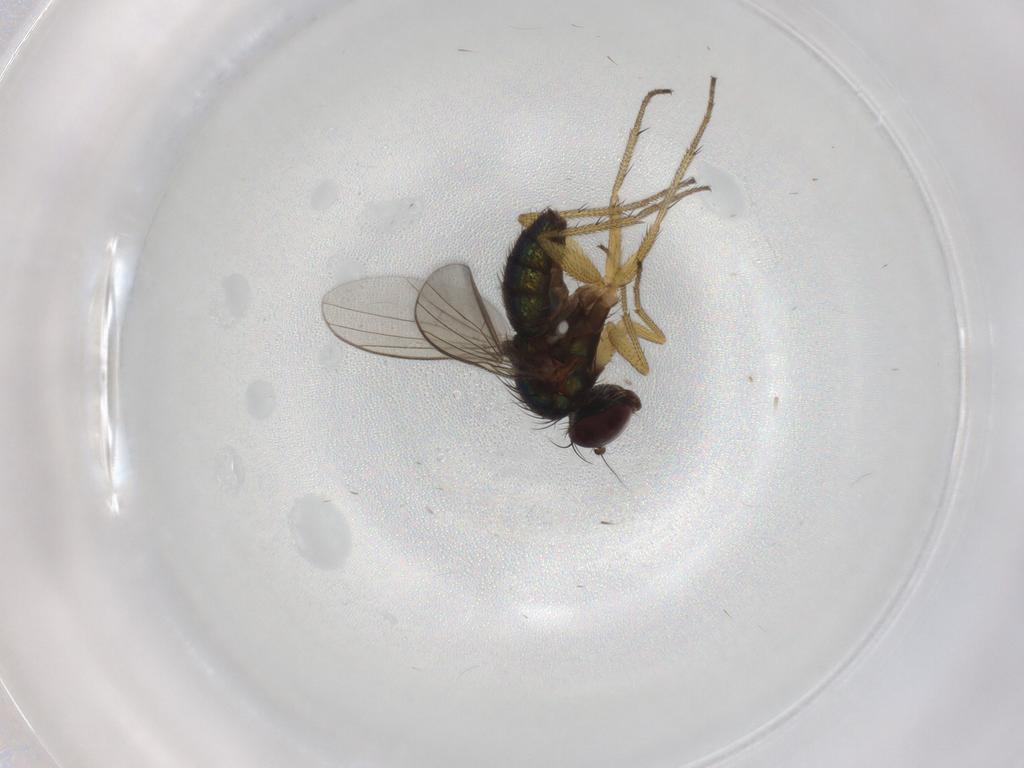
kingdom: Animalia
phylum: Arthropoda
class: Insecta
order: Diptera
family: Dolichopodidae
